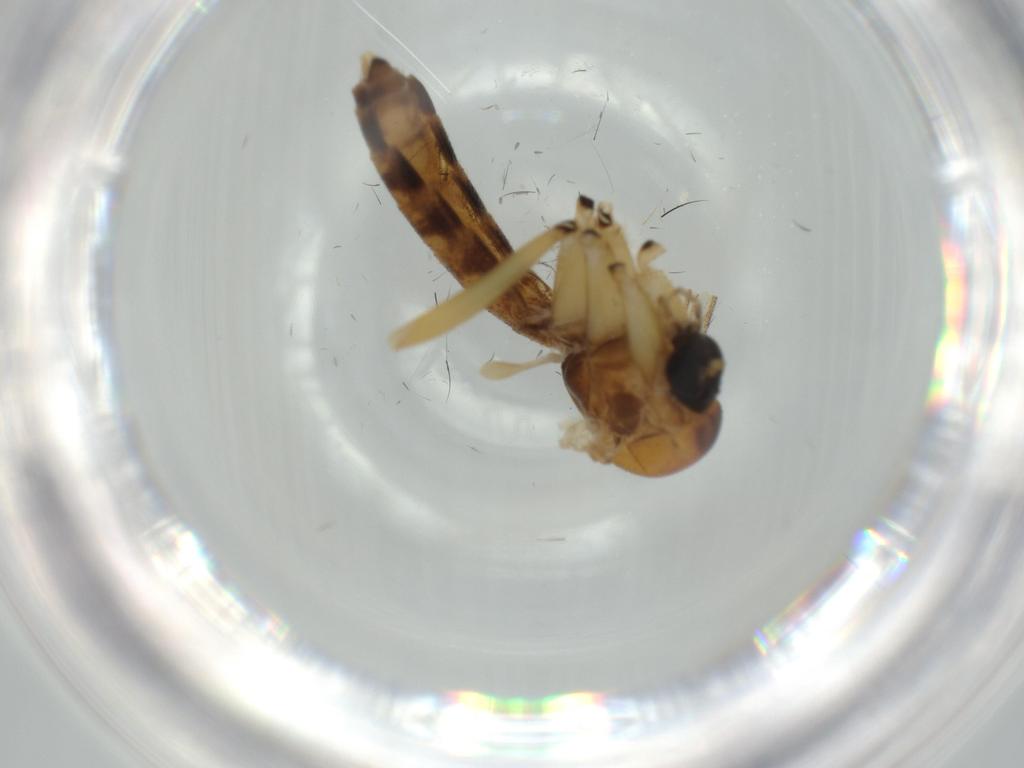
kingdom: Animalia
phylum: Arthropoda
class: Insecta
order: Diptera
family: Chironomidae
